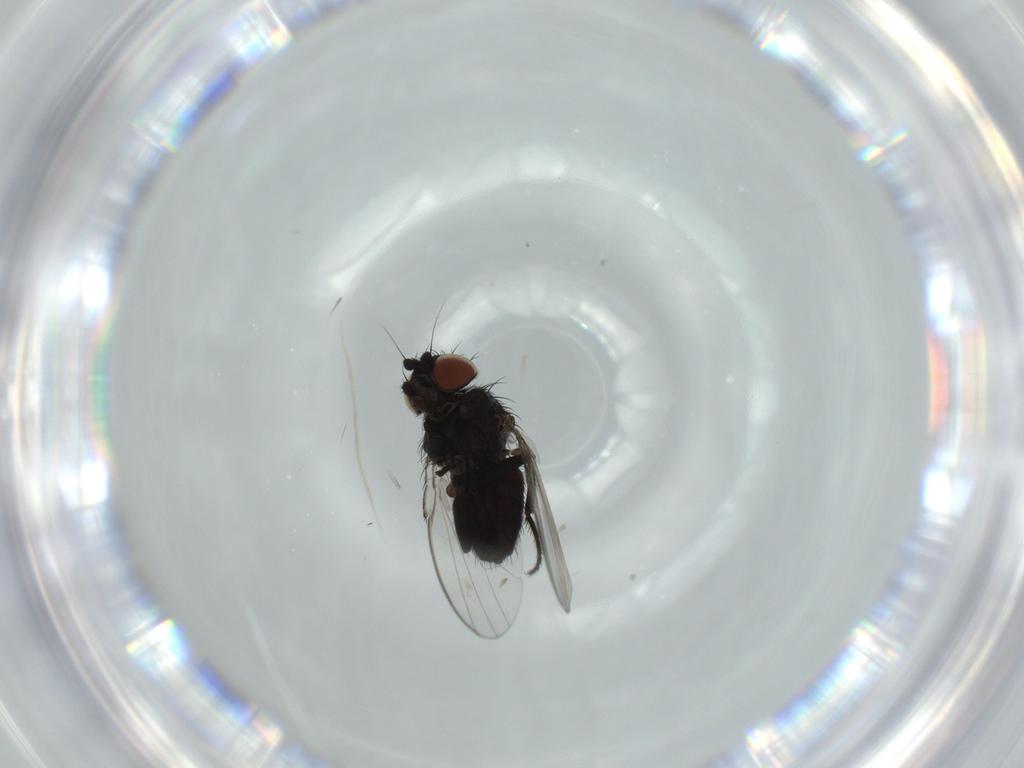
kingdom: Animalia
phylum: Arthropoda
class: Insecta
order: Diptera
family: Milichiidae
